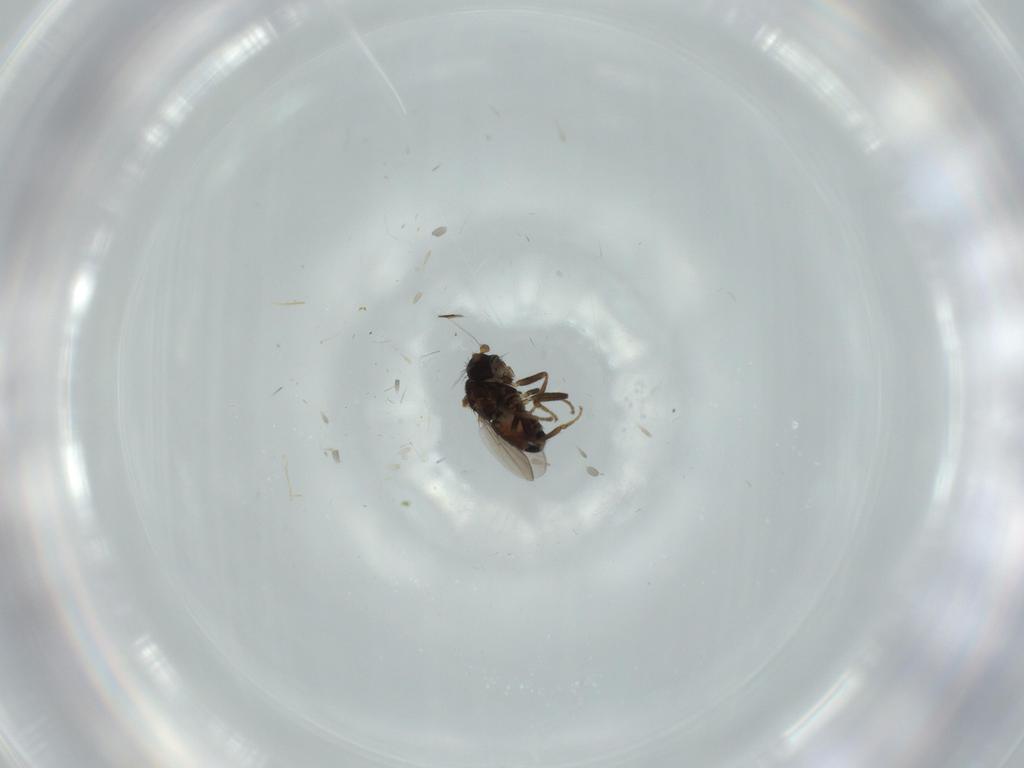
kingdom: Animalia
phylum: Arthropoda
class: Insecta
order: Diptera
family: Sphaeroceridae
